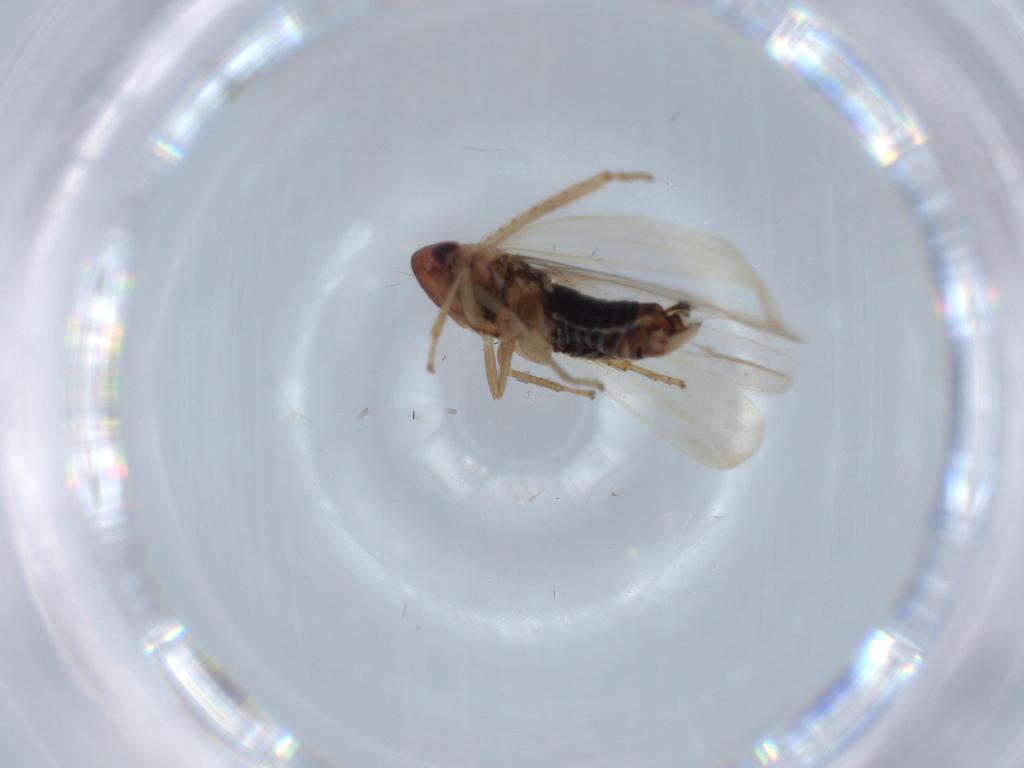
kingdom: Animalia
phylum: Arthropoda
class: Insecta
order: Hemiptera
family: Cicadellidae
